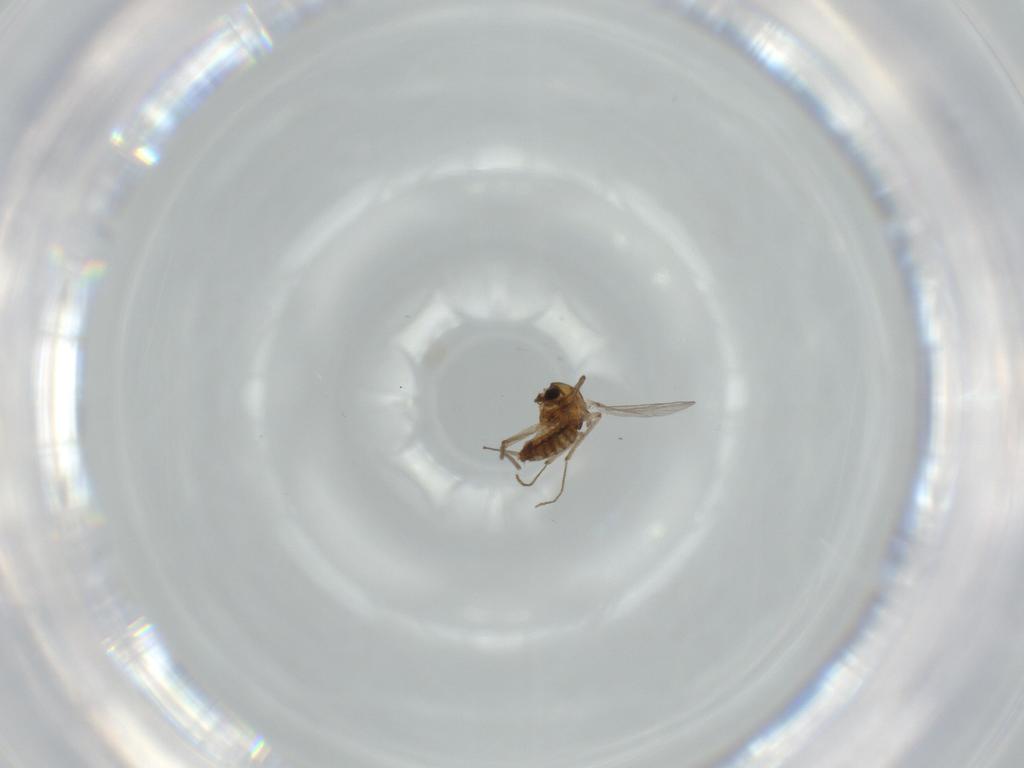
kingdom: Animalia
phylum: Arthropoda
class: Insecta
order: Diptera
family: Chironomidae
